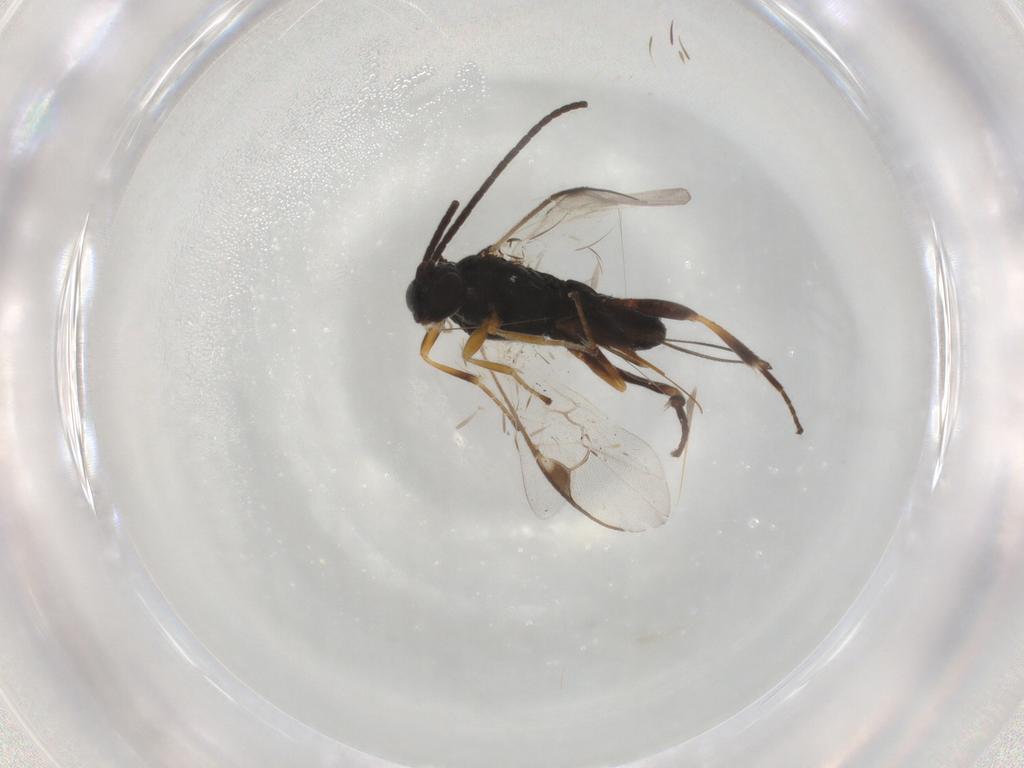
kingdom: Animalia
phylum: Arthropoda
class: Insecta
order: Hymenoptera
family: Braconidae
